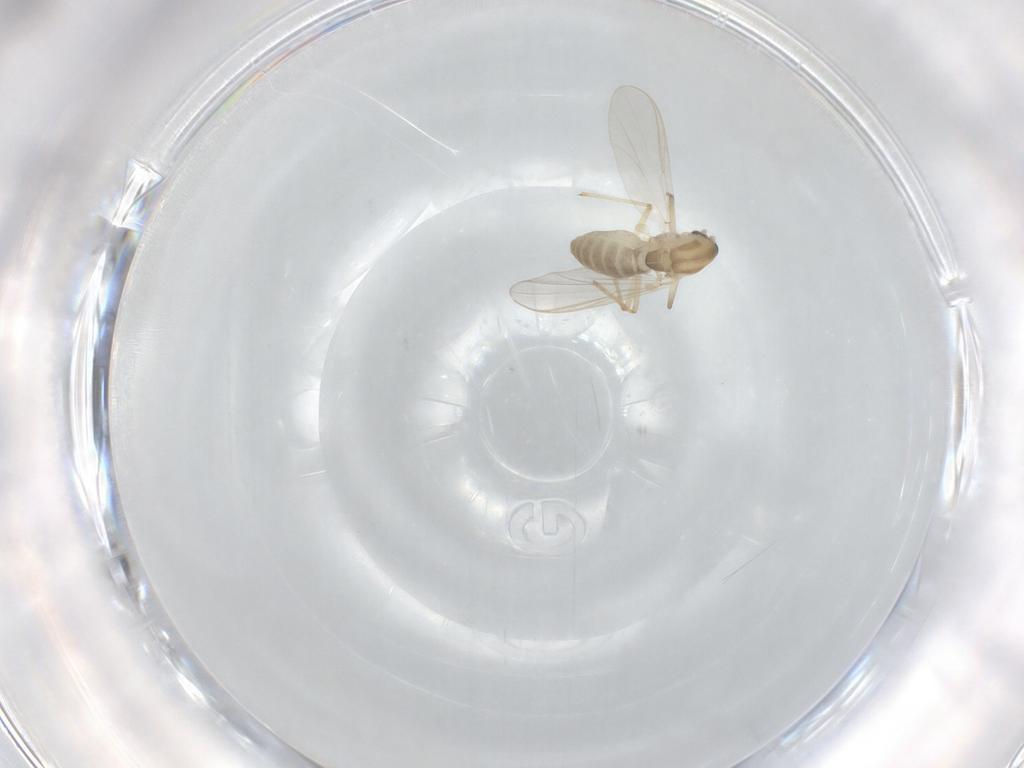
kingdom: Animalia
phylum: Arthropoda
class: Insecta
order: Diptera
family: Chironomidae
